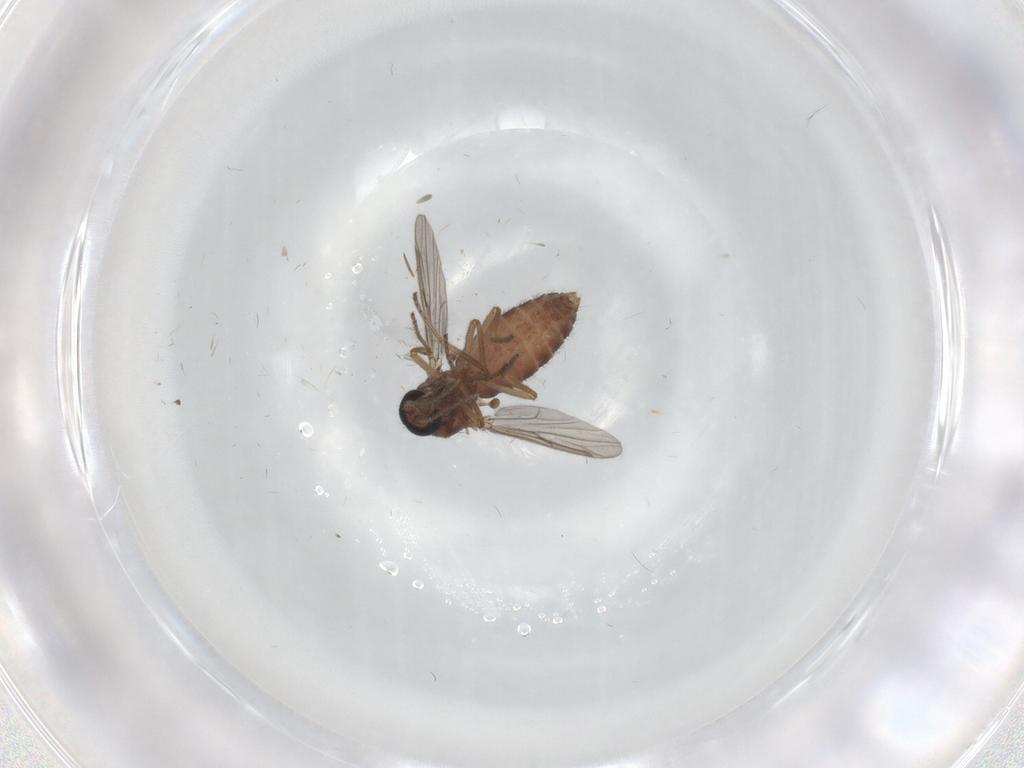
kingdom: Animalia
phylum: Arthropoda
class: Insecta
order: Diptera
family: Ceratopogonidae
